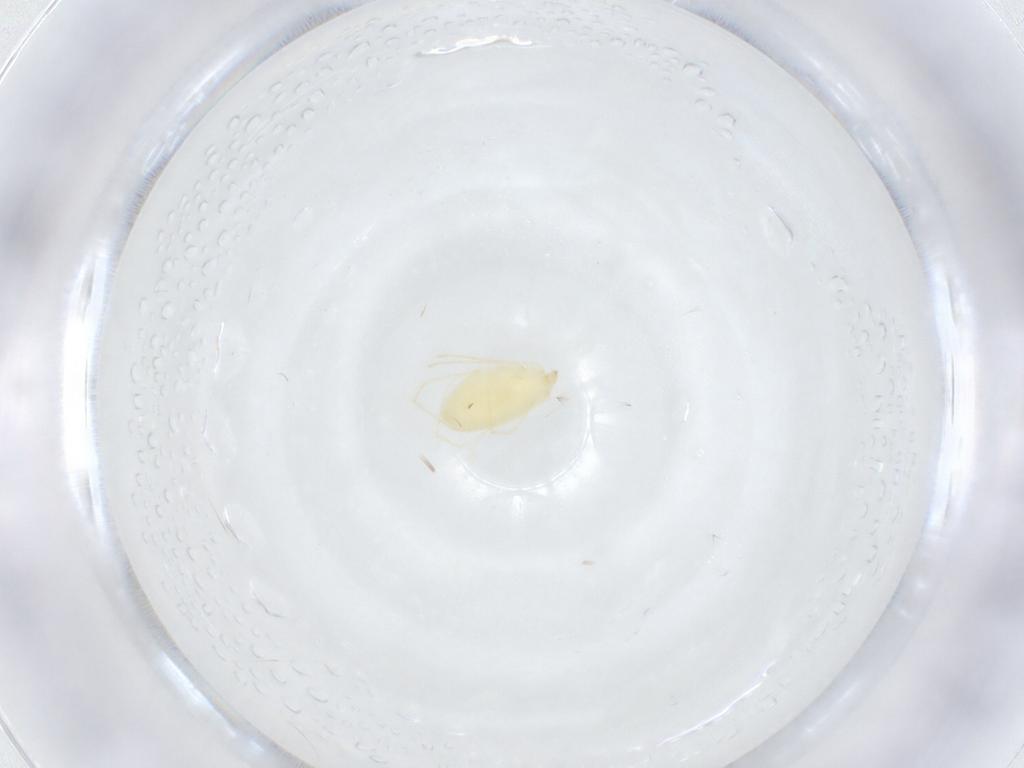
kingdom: Animalia
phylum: Arthropoda
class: Arachnida
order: Trombidiformes
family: Erythraeidae
